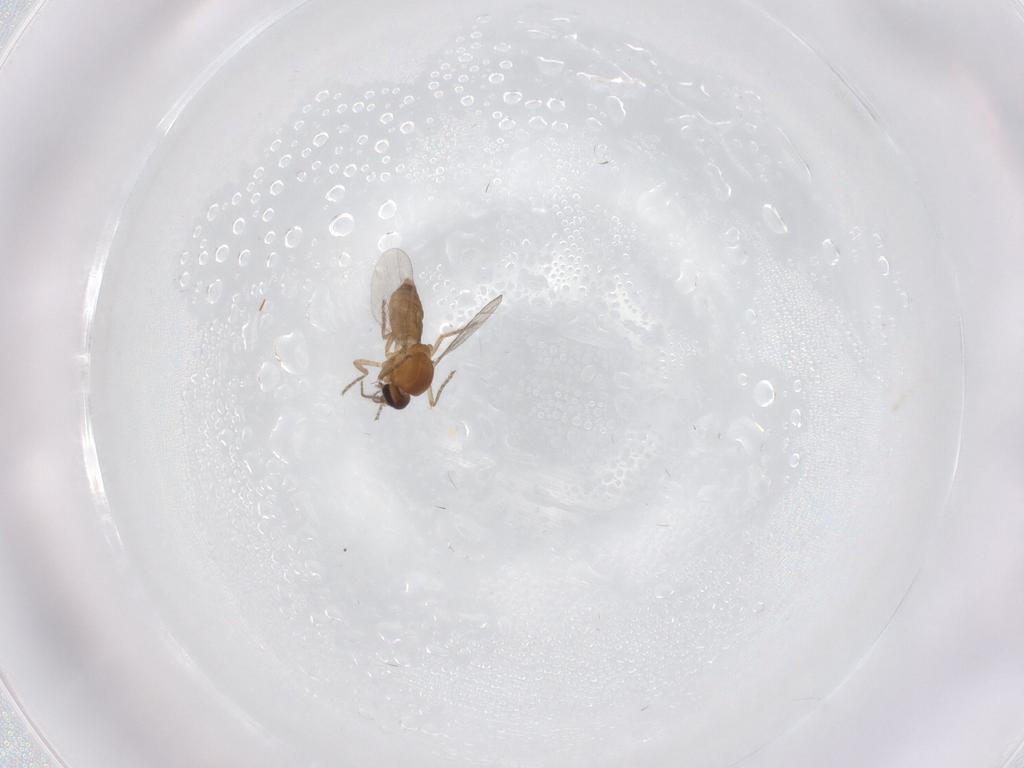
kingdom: Animalia
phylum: Arthropoda
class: Insecta
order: Diptera
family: Ceratopogonidae
